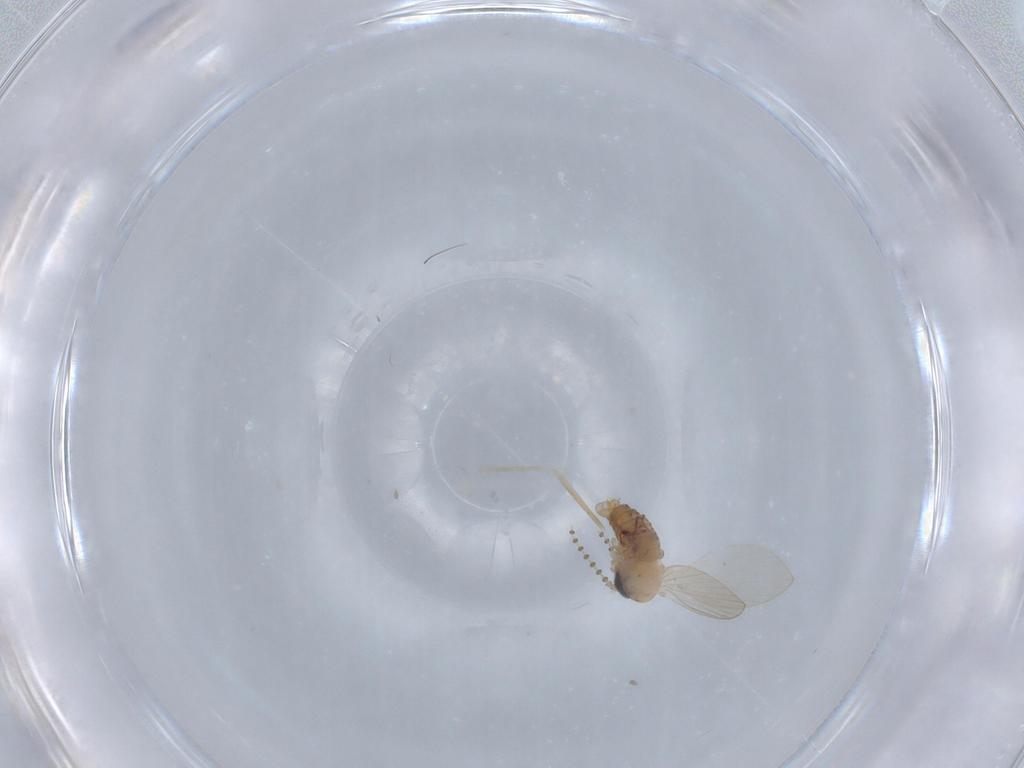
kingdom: Animalia
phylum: Arthropoda
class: Insecta
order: Diptera
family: Psychodidae
